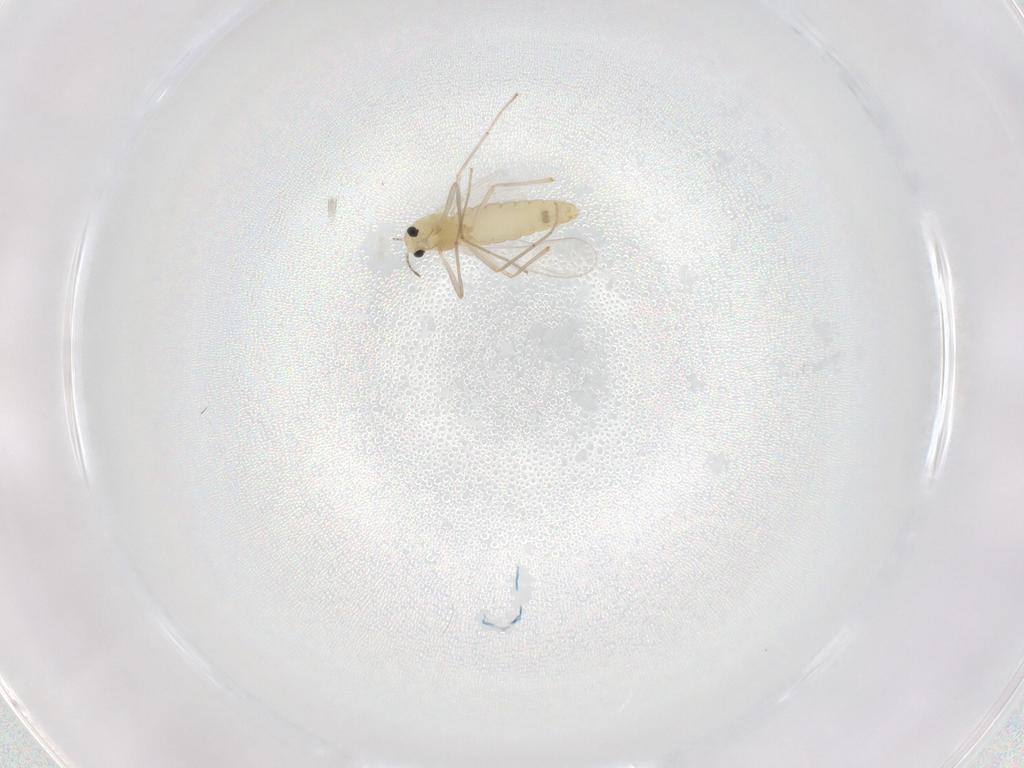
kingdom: Animalia
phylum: Arthropoda
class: Insecta
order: Diptera
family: Chironomidae
